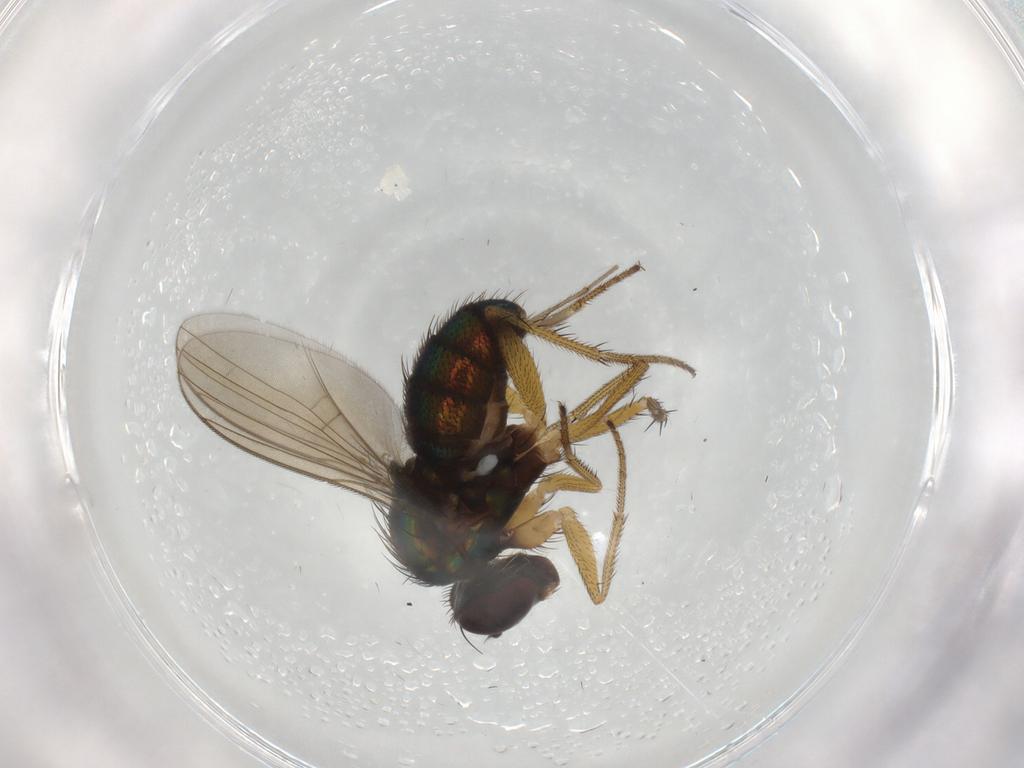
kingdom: Animalia
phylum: Arthropoda
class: Insecta
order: Diptera
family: Dolichopodidae
